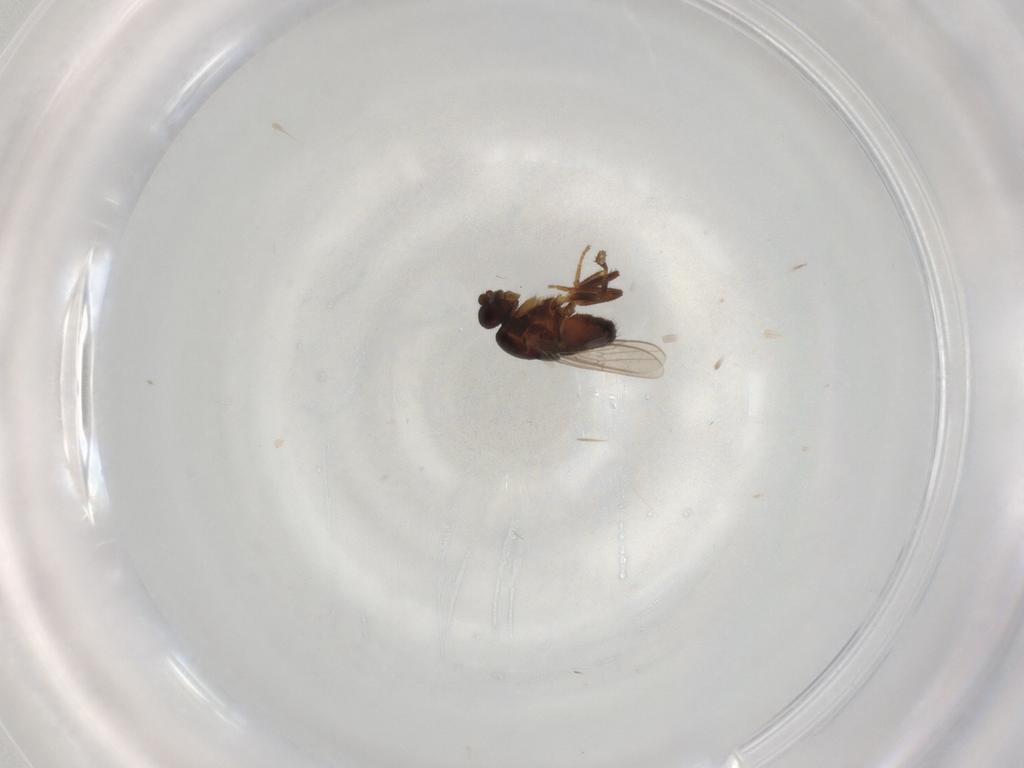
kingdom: Animalia
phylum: Arthropoda
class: Insecta
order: Diptera
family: Sphaeroceridae
